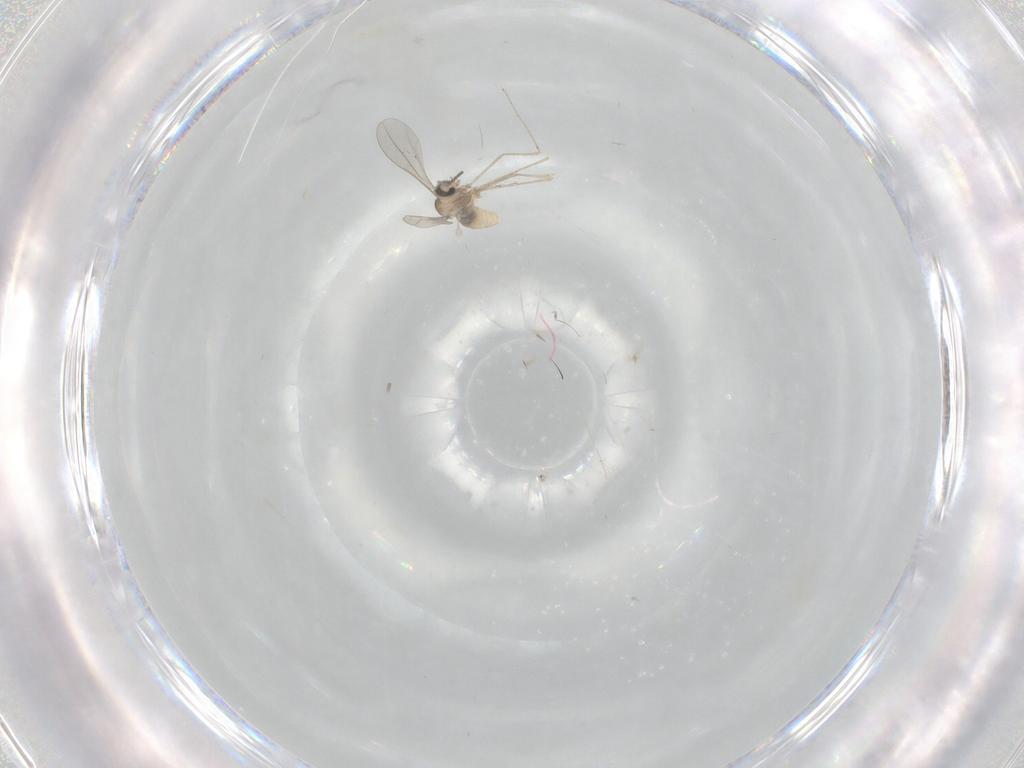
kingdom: Animalia
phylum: Arthropoda
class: Insecta
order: Diptera
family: Cecidomyiidae
